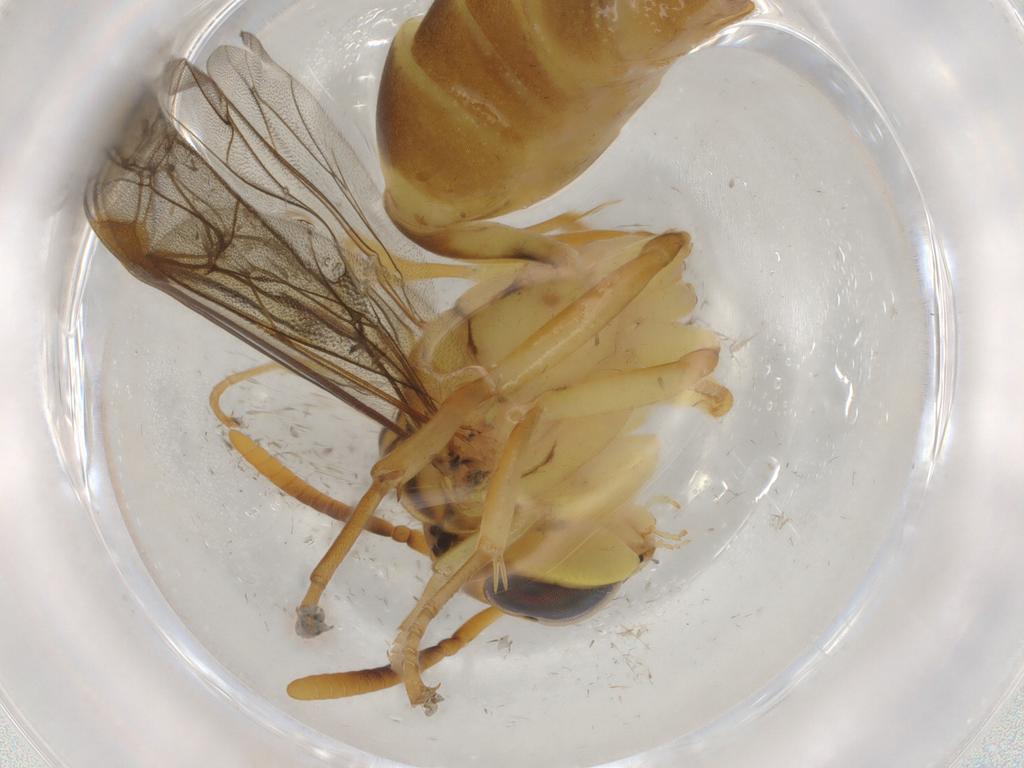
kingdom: Animalia
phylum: Arthropoda
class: Insecta
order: Hymenoptera
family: Vespidae
